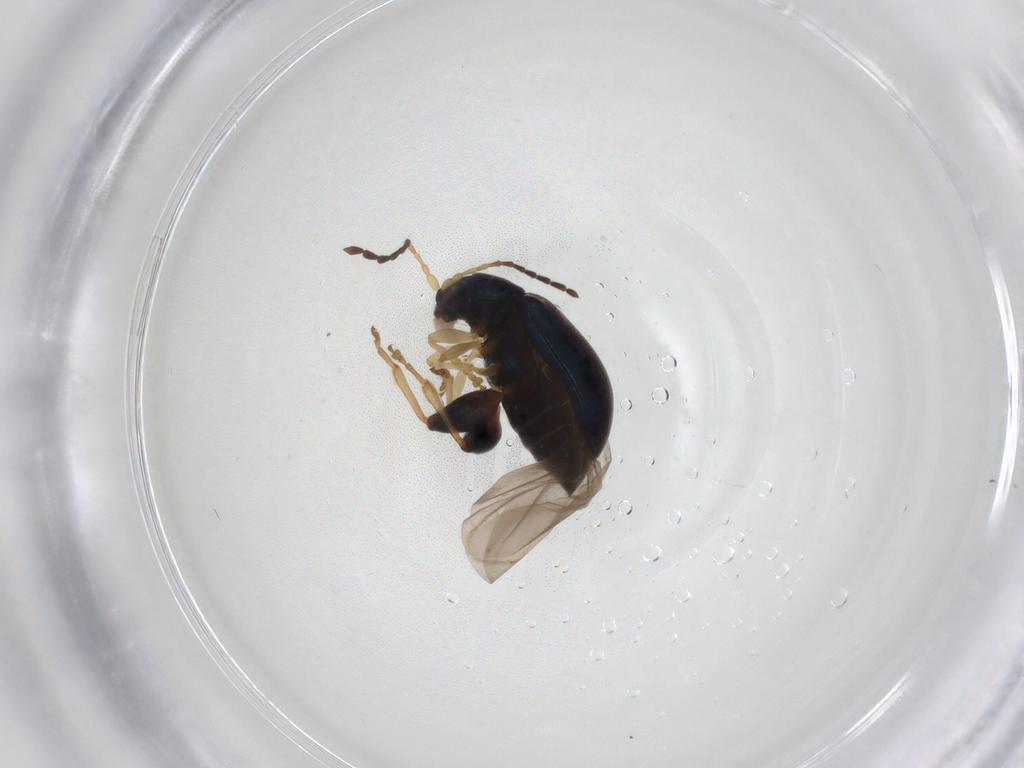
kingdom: Animalia
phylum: Arthropoda
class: Insecta
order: Coleoptera
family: Chrysomelidae
